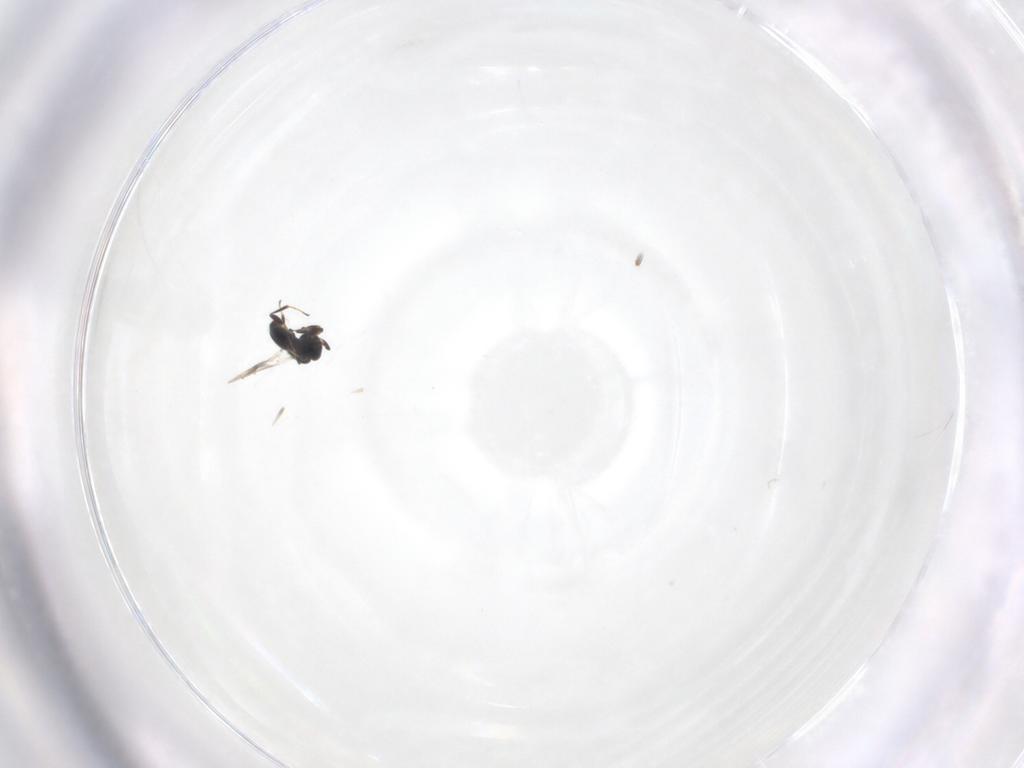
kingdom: Animalia
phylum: Arthropoda
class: Insecta
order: Hymenoptera
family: Platygastridae
